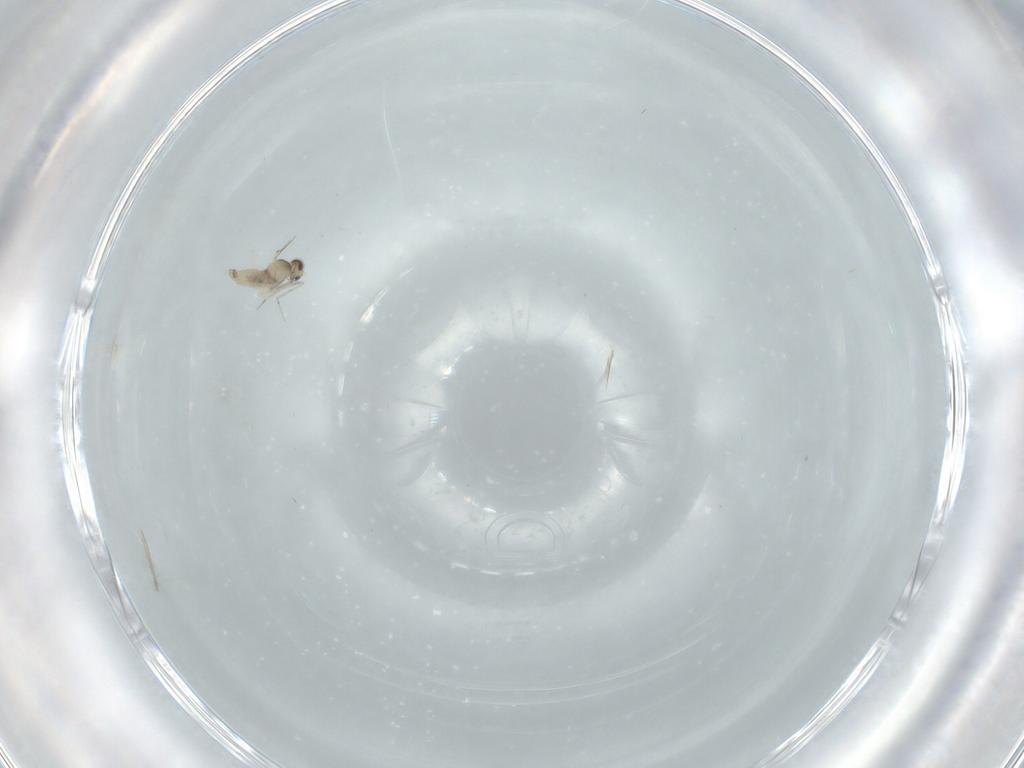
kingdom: Animalia
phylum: Arthropoda
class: Insecta
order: Diptera
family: Cecidomyiidae
